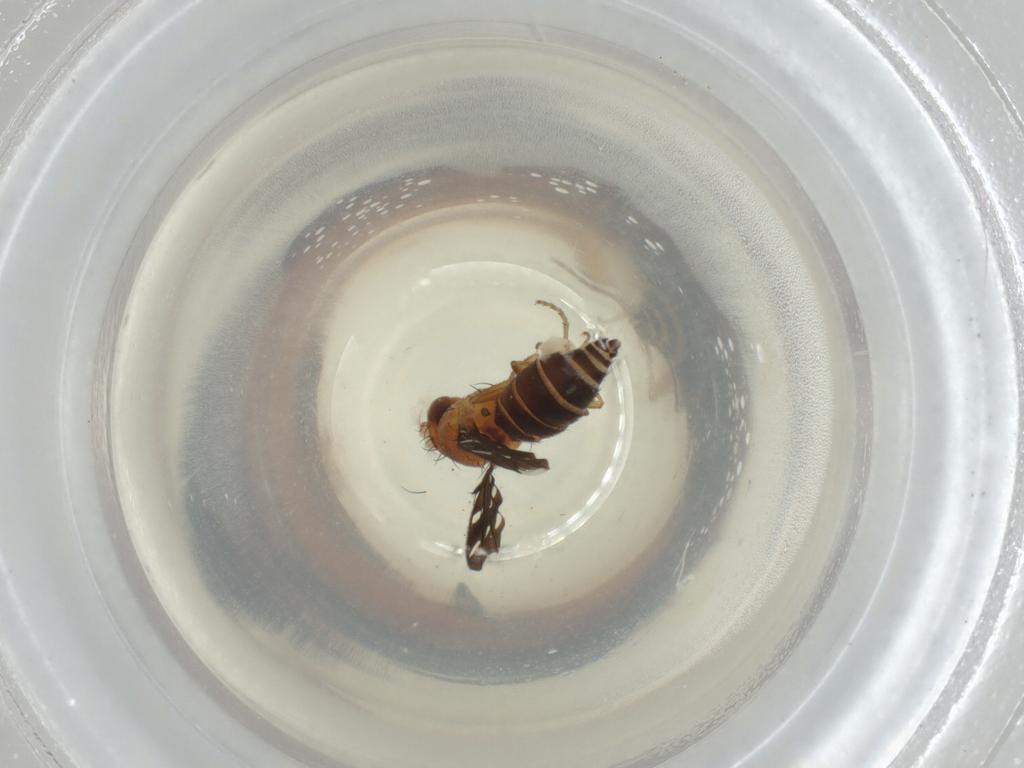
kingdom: Animalia
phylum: Arthropoda
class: Insecta
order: Diptera
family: Ephydridae
